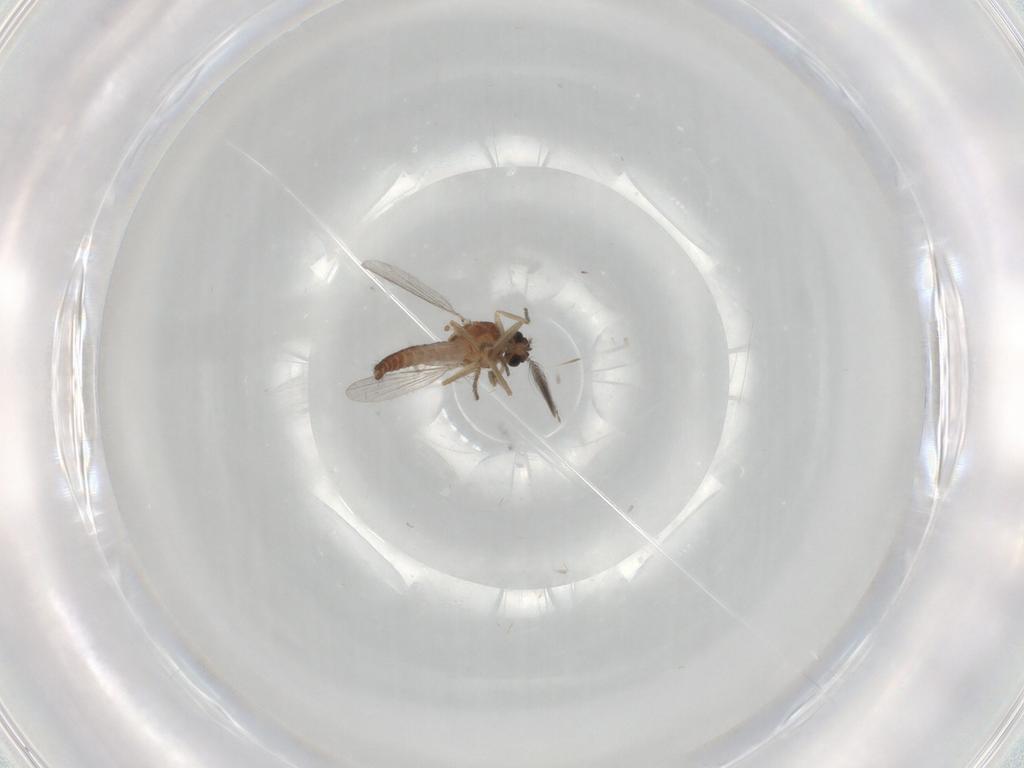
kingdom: Animalia
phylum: Arthropoda
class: Insecta
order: Diptera
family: Ceratopogonidae
